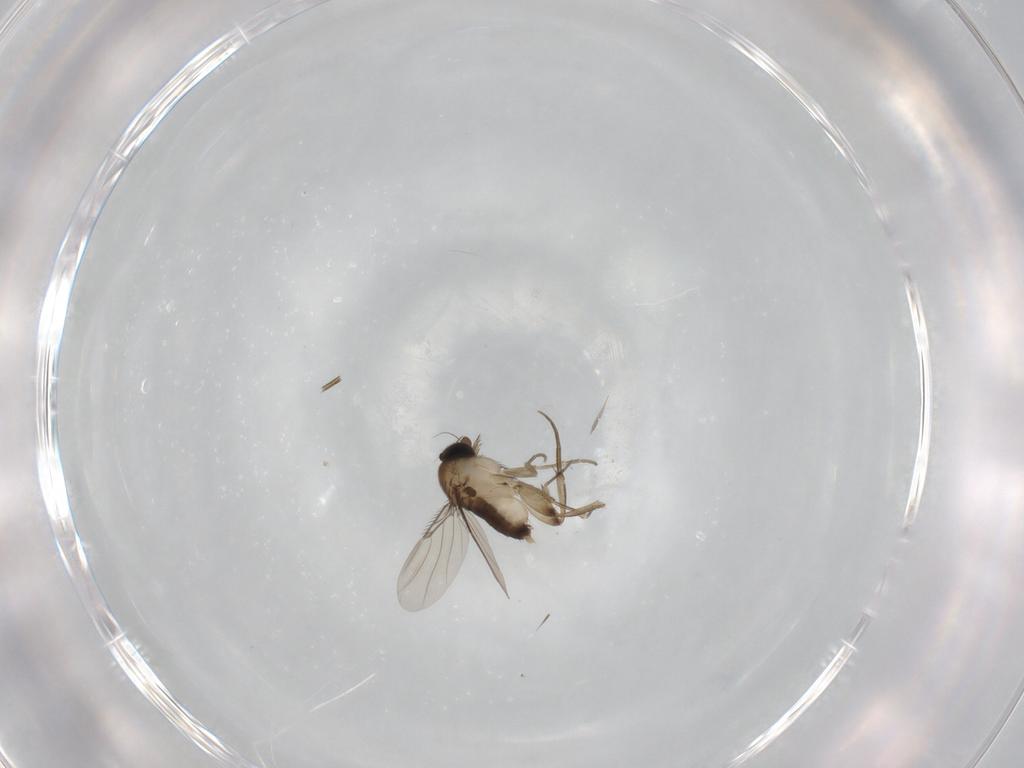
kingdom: Animalia
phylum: Arthropoda
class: Insecta
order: Diptera
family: Phoridae
